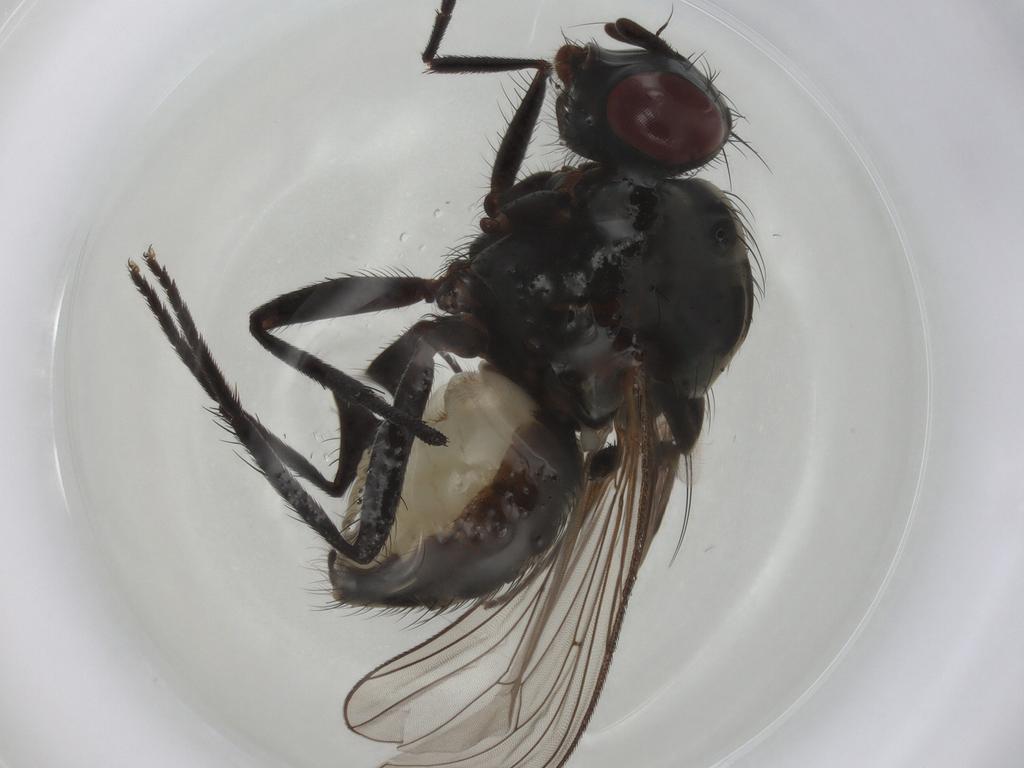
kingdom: Animalia
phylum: Arthropoda
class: Insecta
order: Diptera
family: Anthomyiidae
